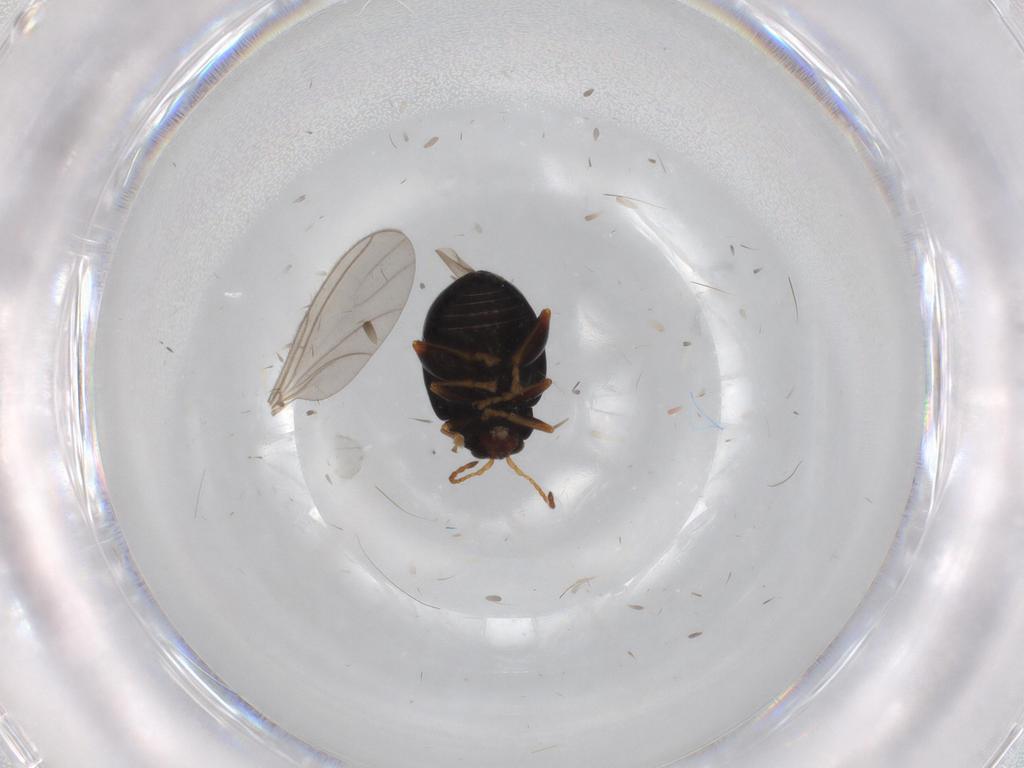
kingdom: Animalia
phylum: Arthropoda
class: Insecta
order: Coleoptera
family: Chrysomelidae
